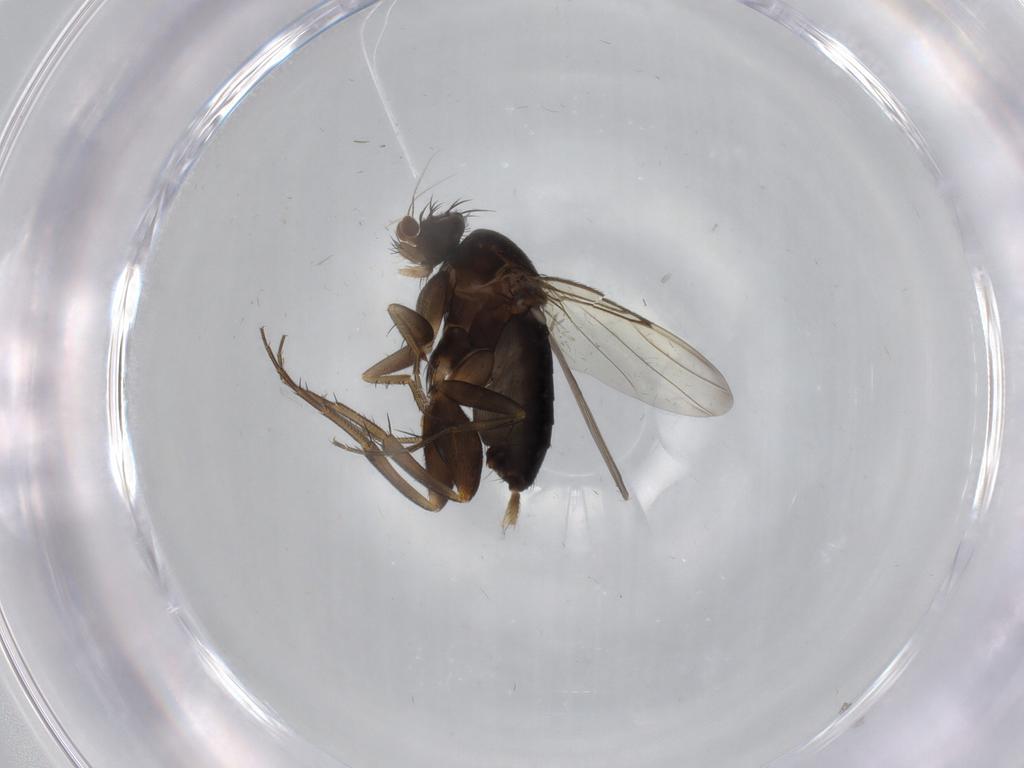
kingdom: Animalia
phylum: Arthropoda
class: Insecta
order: Diptera
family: Phoridae
